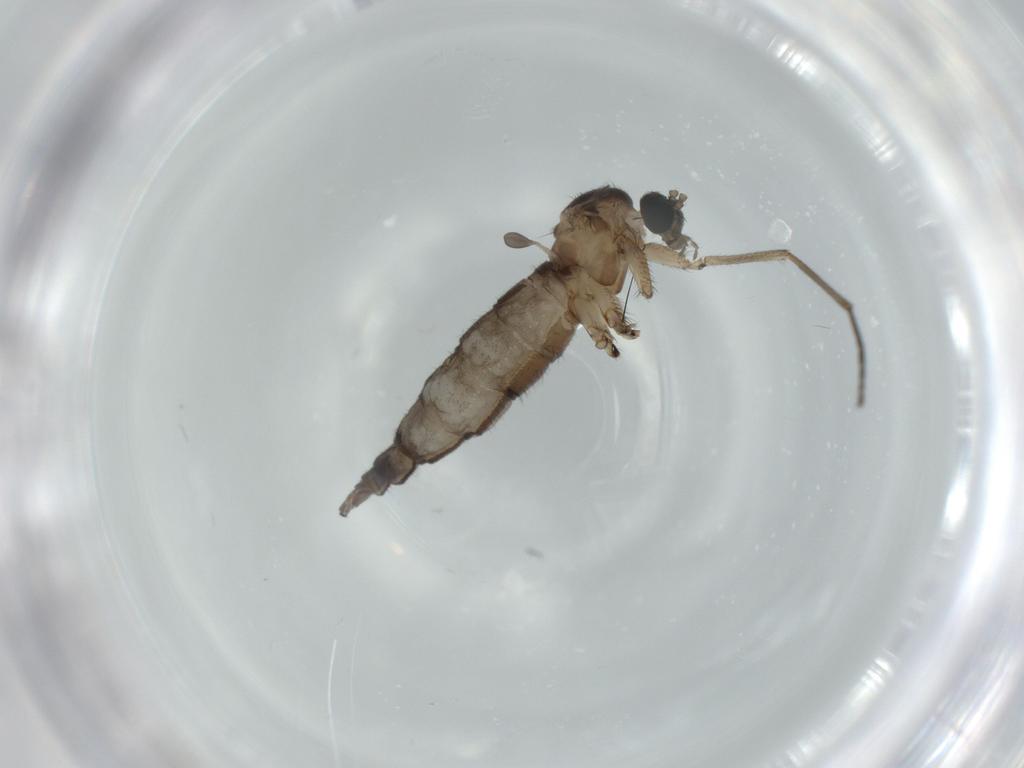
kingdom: Animalia
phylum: Arthropoda
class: Insecta
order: Diptera
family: Sciaridae
